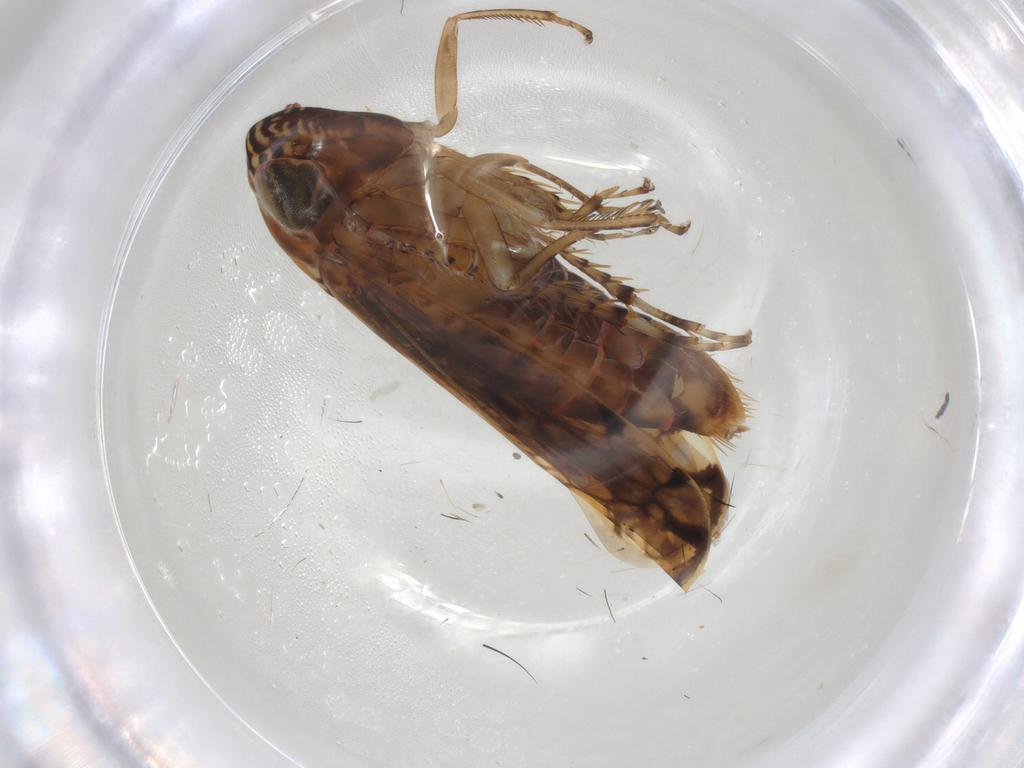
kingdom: Animalia
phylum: Arthropoda
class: Insecta
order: Hemiptera
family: Cicadellidae
